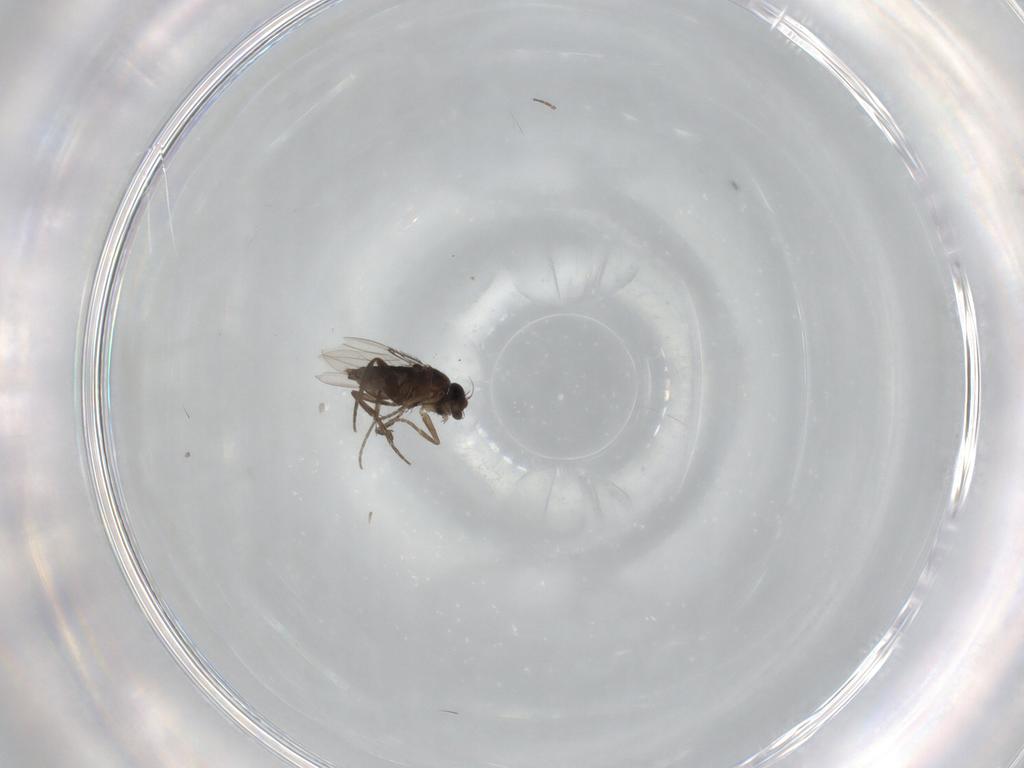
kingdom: Animalia
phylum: Arthropoda
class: Insecta
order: Diptera
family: Phoridae
